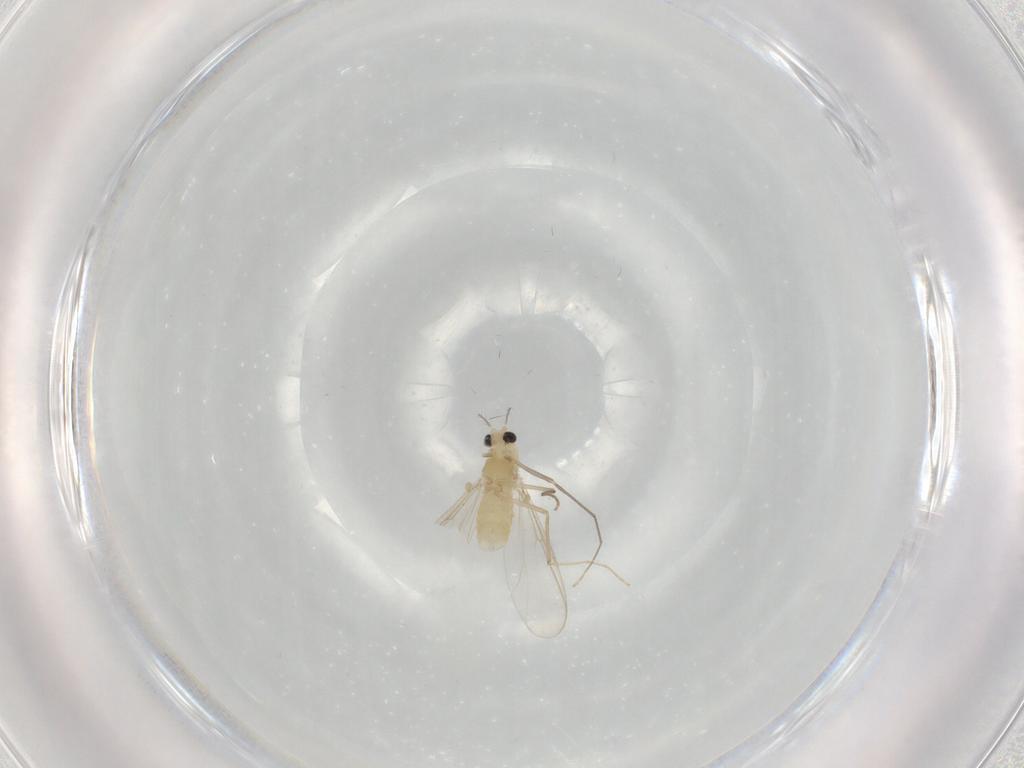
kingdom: Animalia
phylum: Arthropoda
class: Insecta
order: Diptera
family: Chironomidae
